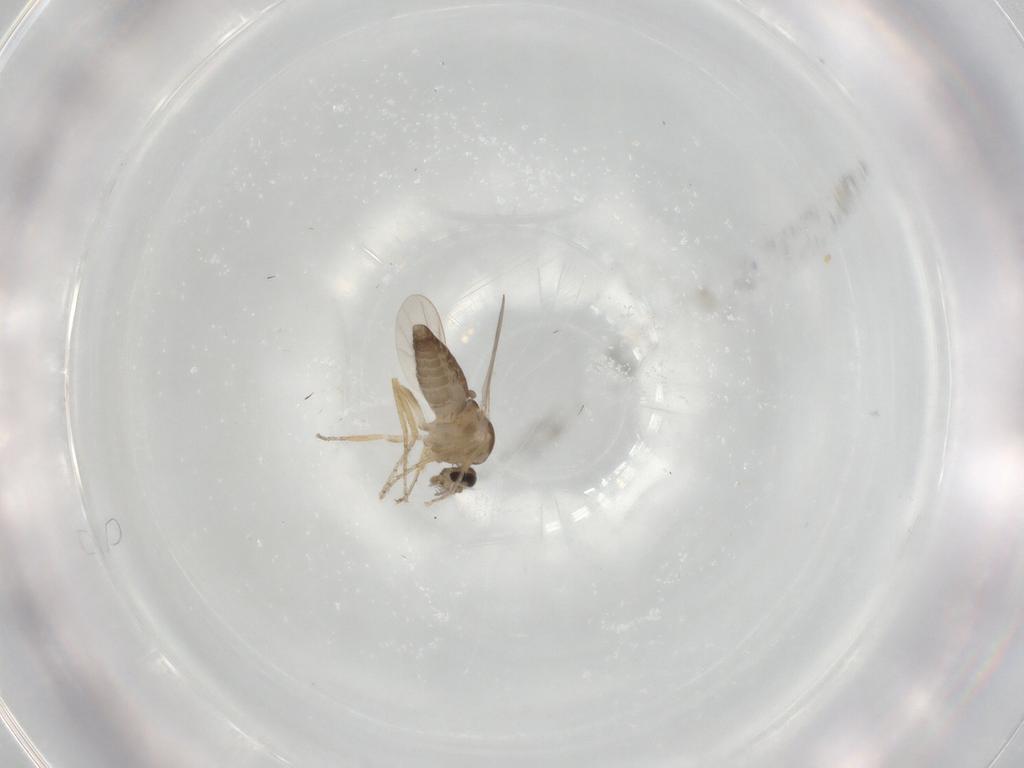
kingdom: Animalia
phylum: Arthropoda
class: Insecta
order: Diptera
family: Ceratopogonidae
